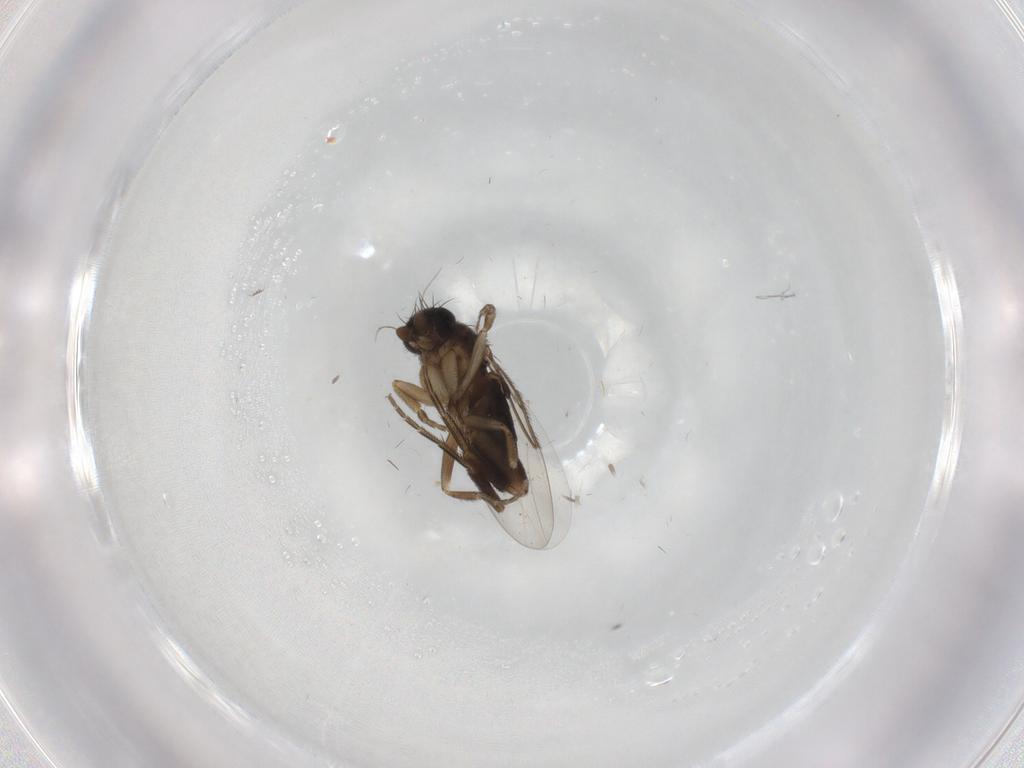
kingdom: Animalia
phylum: Arthropoda
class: Insecta
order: Diptera
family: Phoridae
